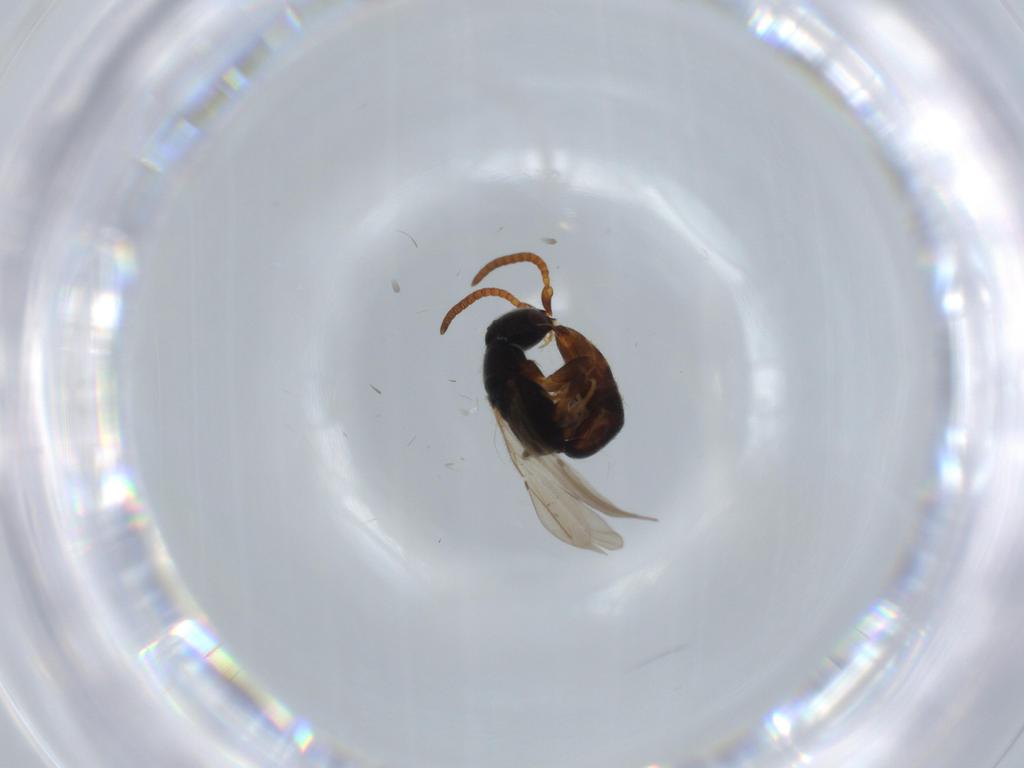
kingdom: Animalia
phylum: Arthropoda
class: Insecta
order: Hymenoptera
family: Bethylidae
